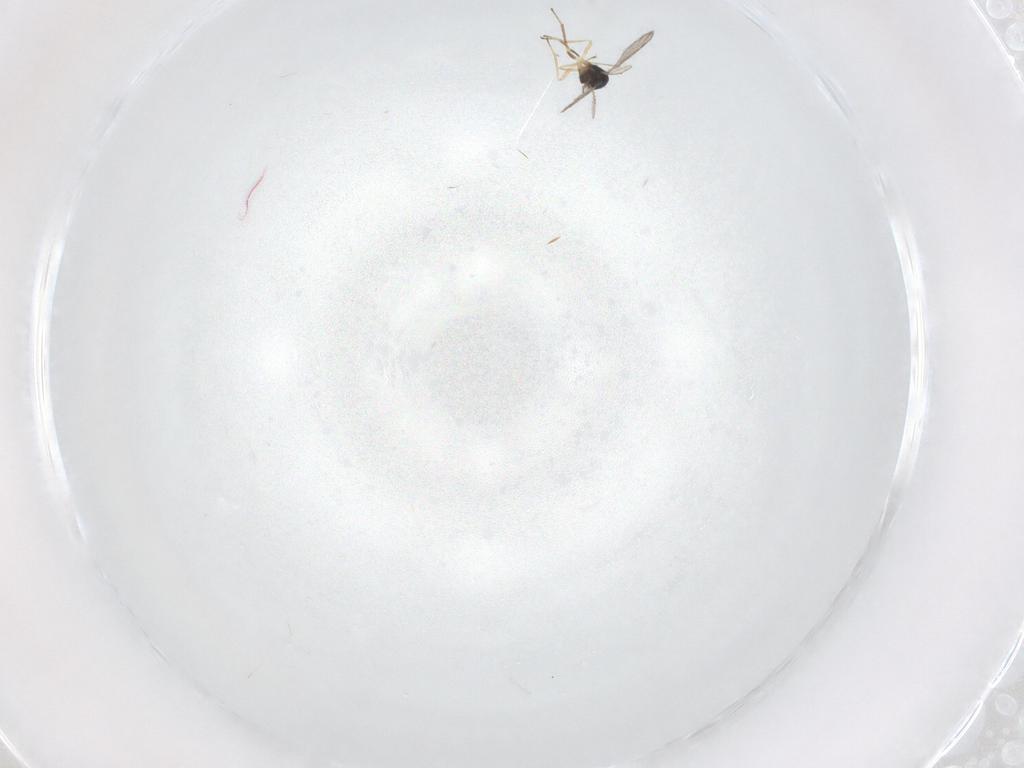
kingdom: Animalia
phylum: Arthropoda
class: Insecta
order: Hymenoptera
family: Eulophidae
